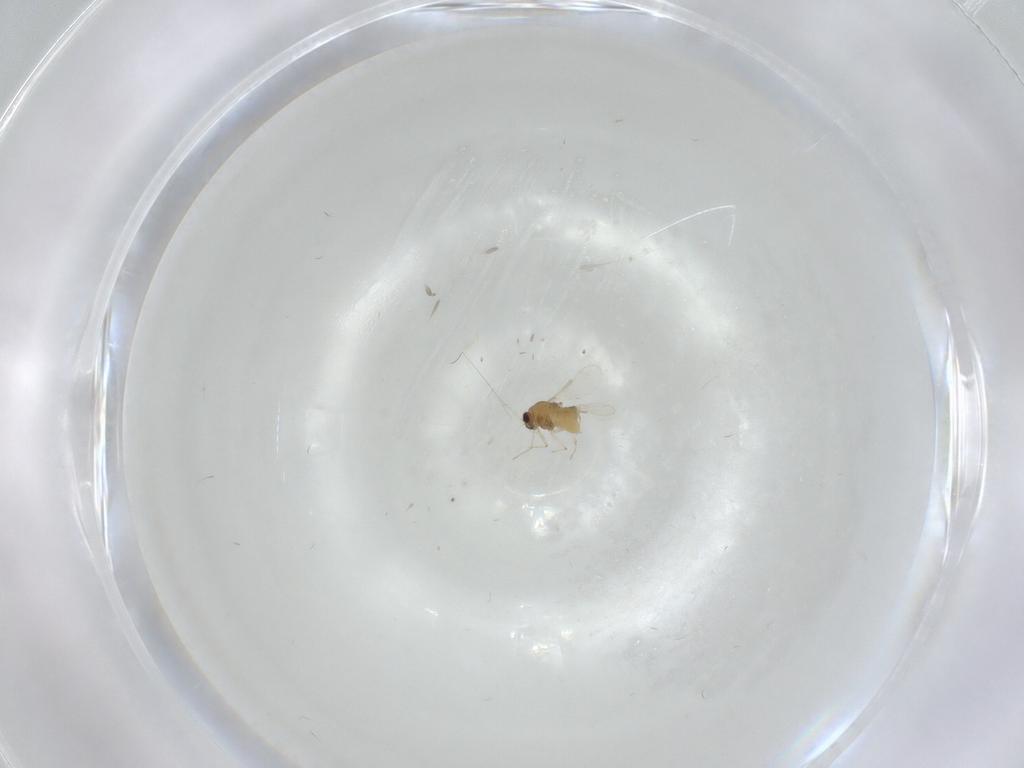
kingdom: Animalia
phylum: Arthropoda
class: Insecta
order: Diptera
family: Chironomidae
